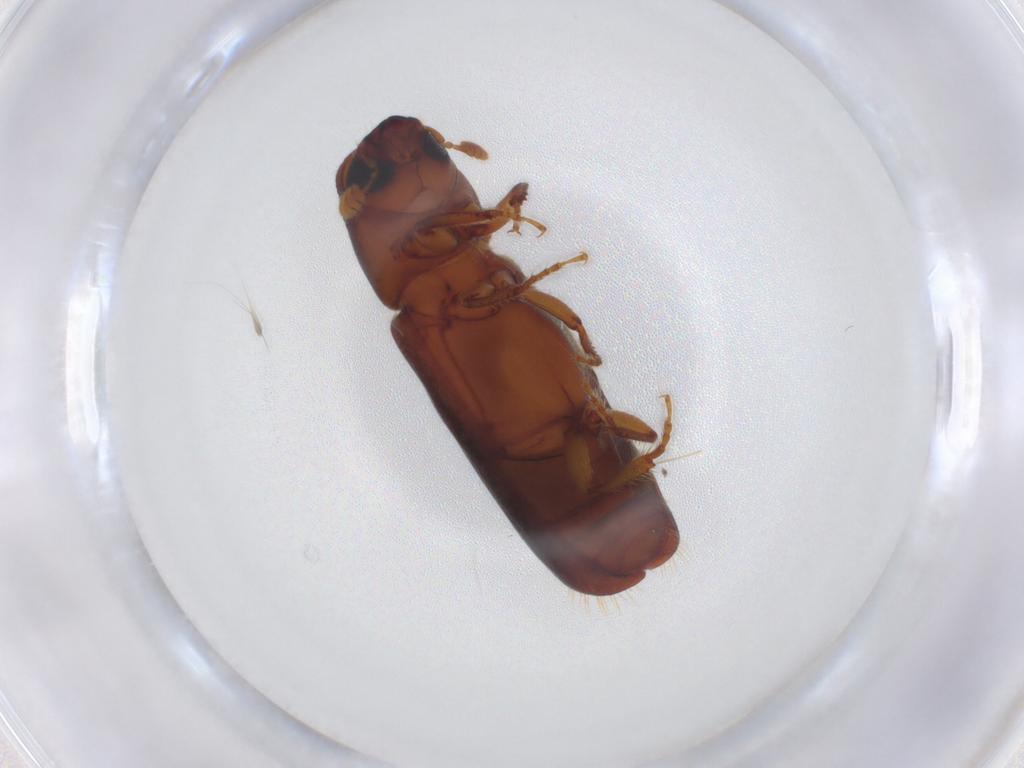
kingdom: Animalia
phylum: Arthropoda
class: Insecta
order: Coleoptera
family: Curculionidae
